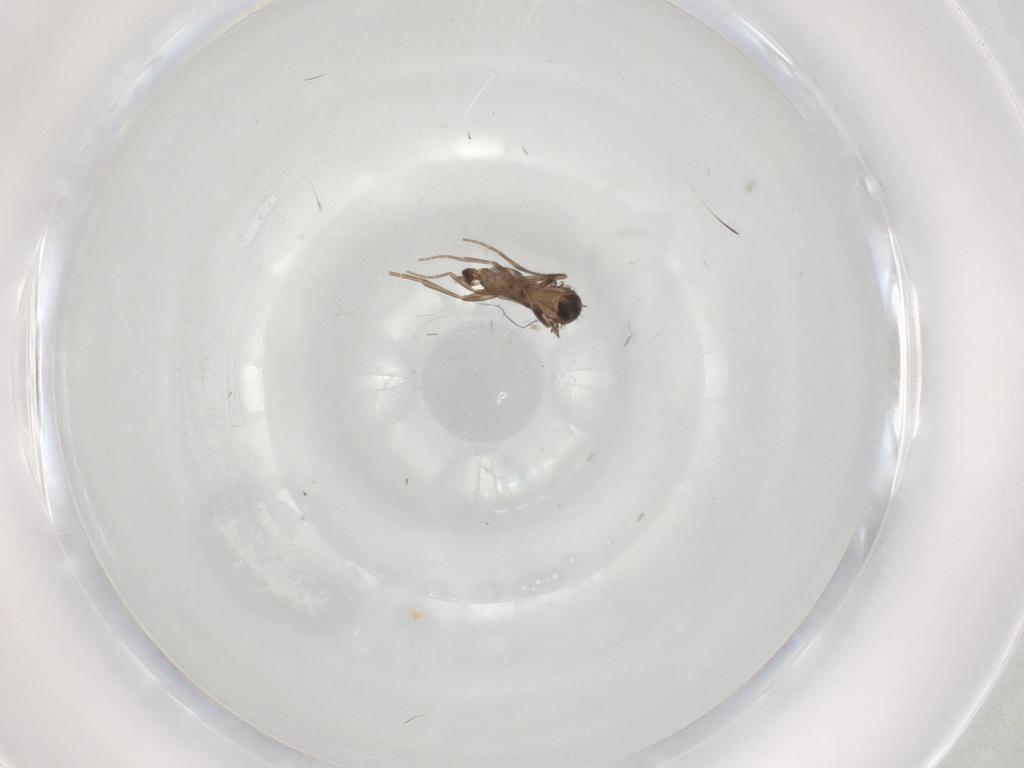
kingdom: Animalia
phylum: Arthropoda
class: Insecta
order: Diptera
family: Phoridae
